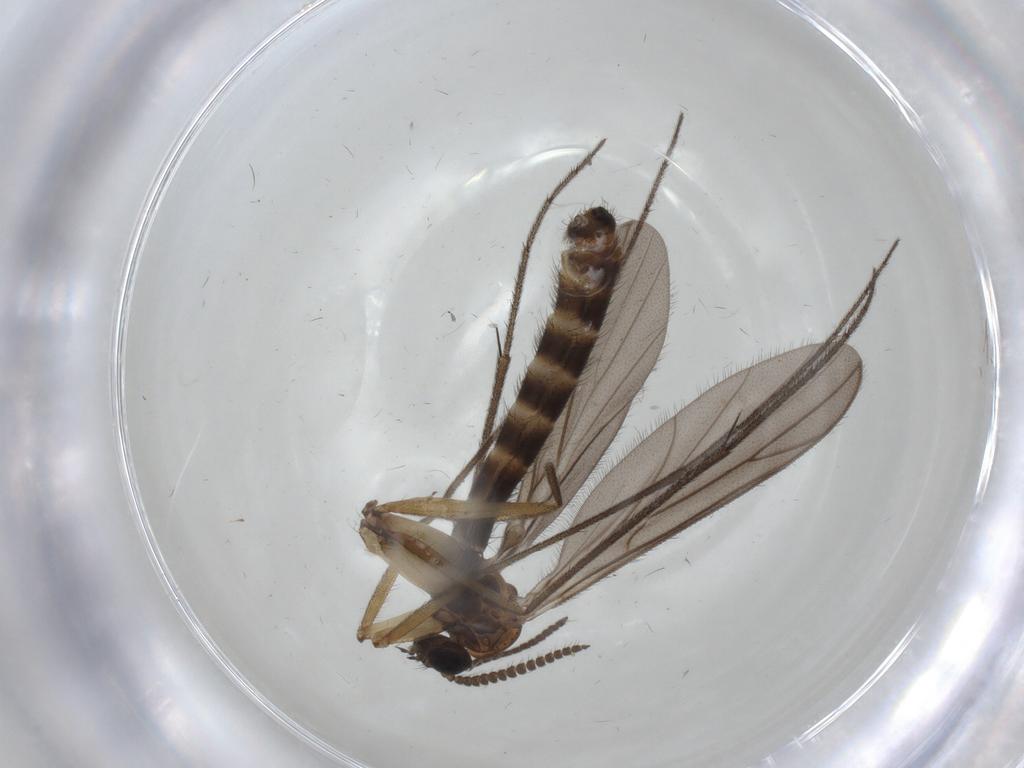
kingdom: Animalia
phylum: Arthropoda
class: Insecta
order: Diptera
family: Ditomyiidae
